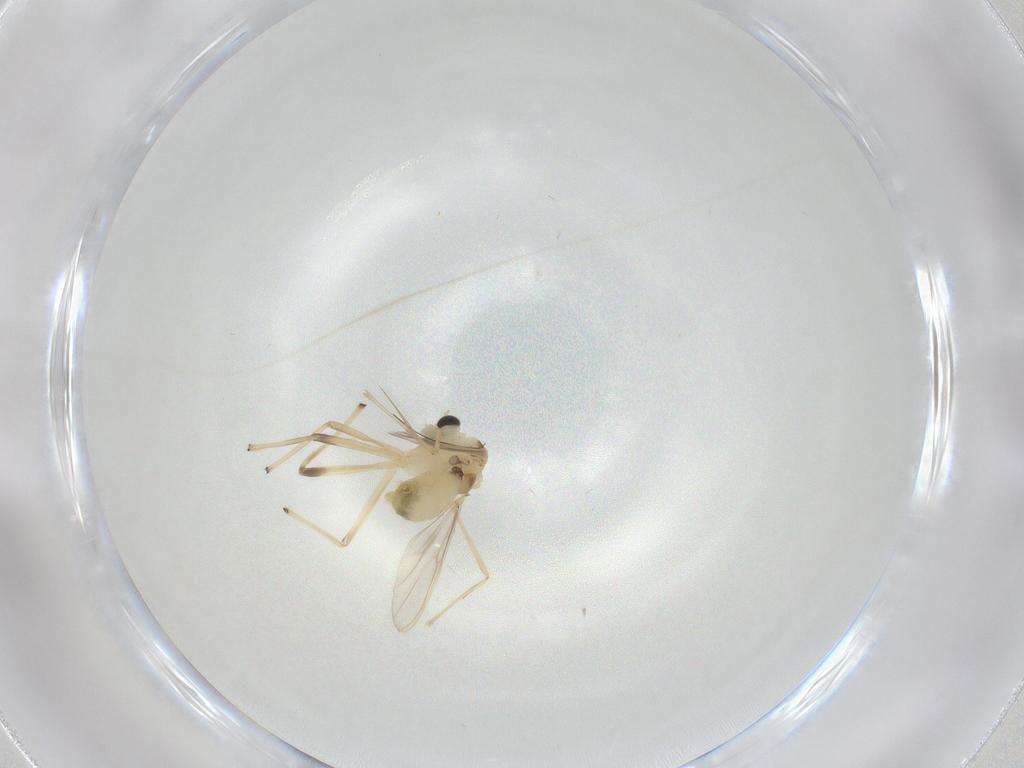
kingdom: Animalia
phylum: Arthropoda
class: Insecta
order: Diptera
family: Chironomidae
